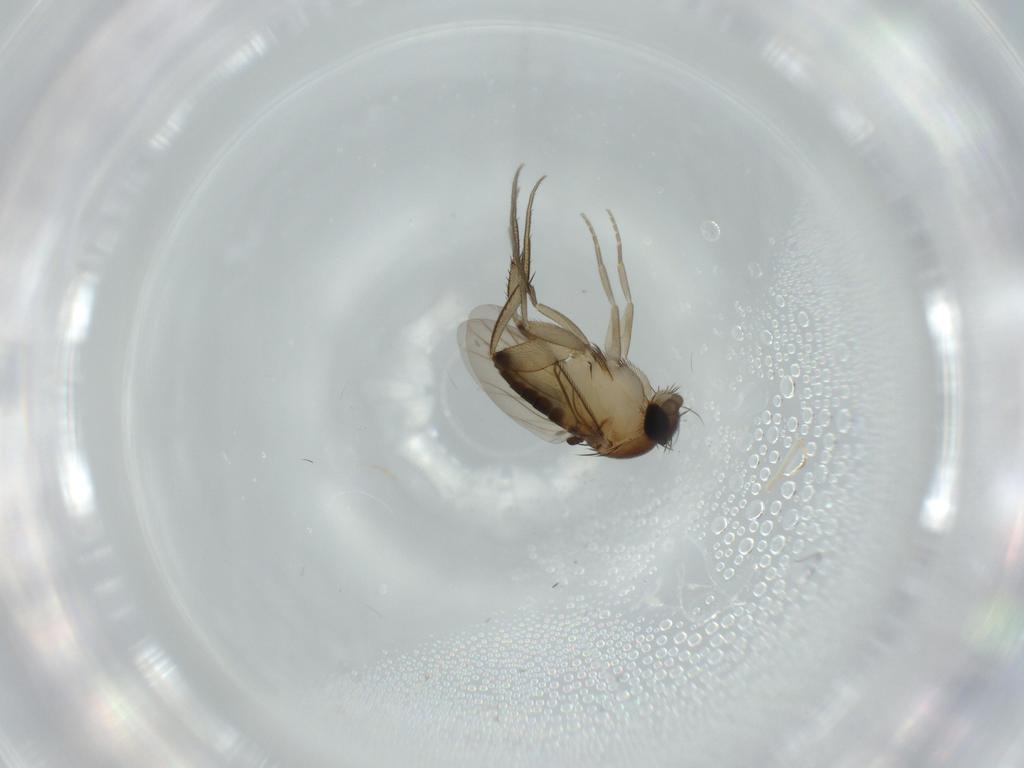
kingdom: Animalia
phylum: Arthropoda
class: Insecta
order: Diptera
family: Phoridae
